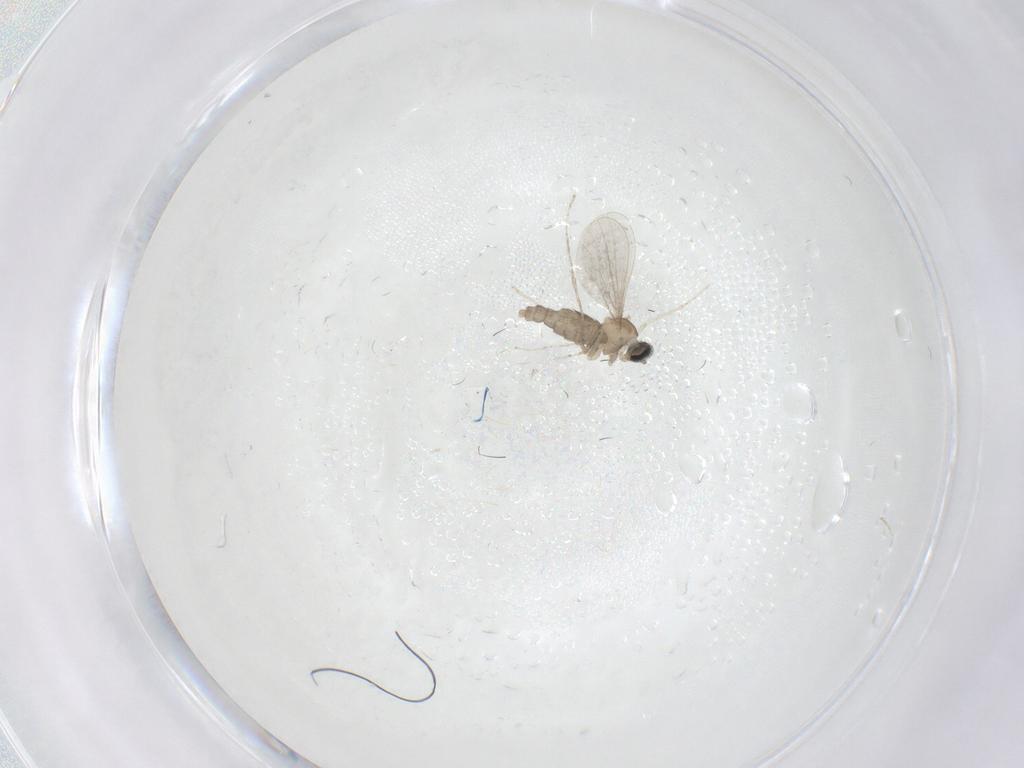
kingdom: Animalia
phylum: Arthropoda
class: Insecta
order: Diptera
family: Cecidomyiidae
